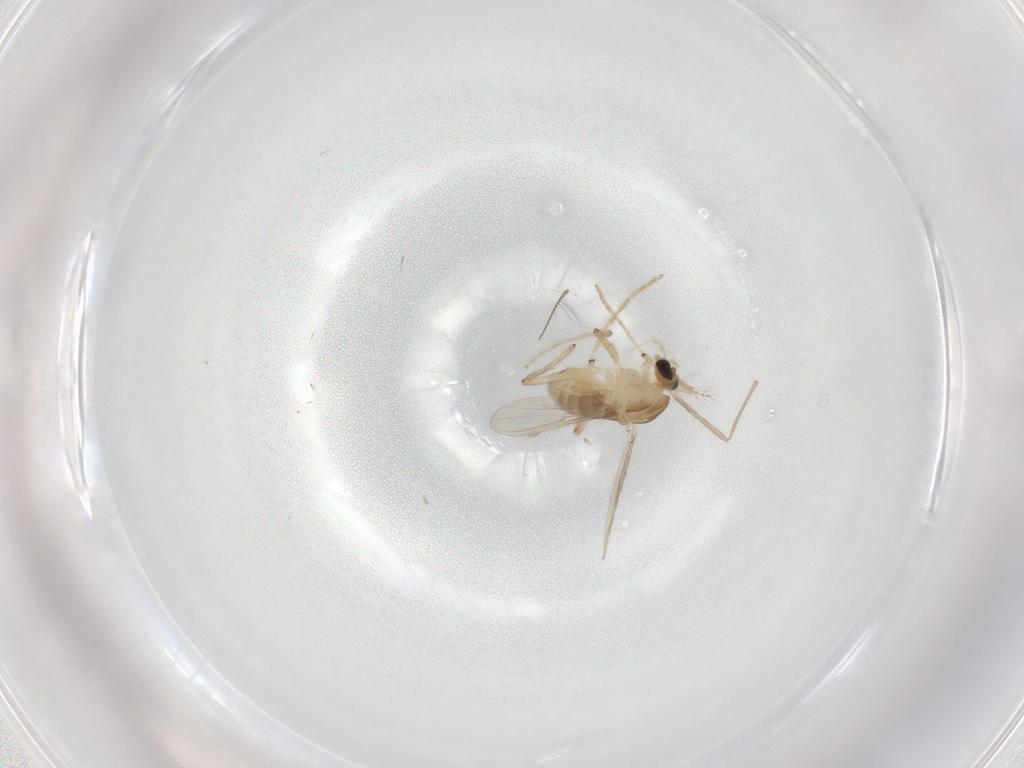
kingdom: Animalia
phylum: Arthropoda
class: Insecta
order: Diptera
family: Chironomidae
